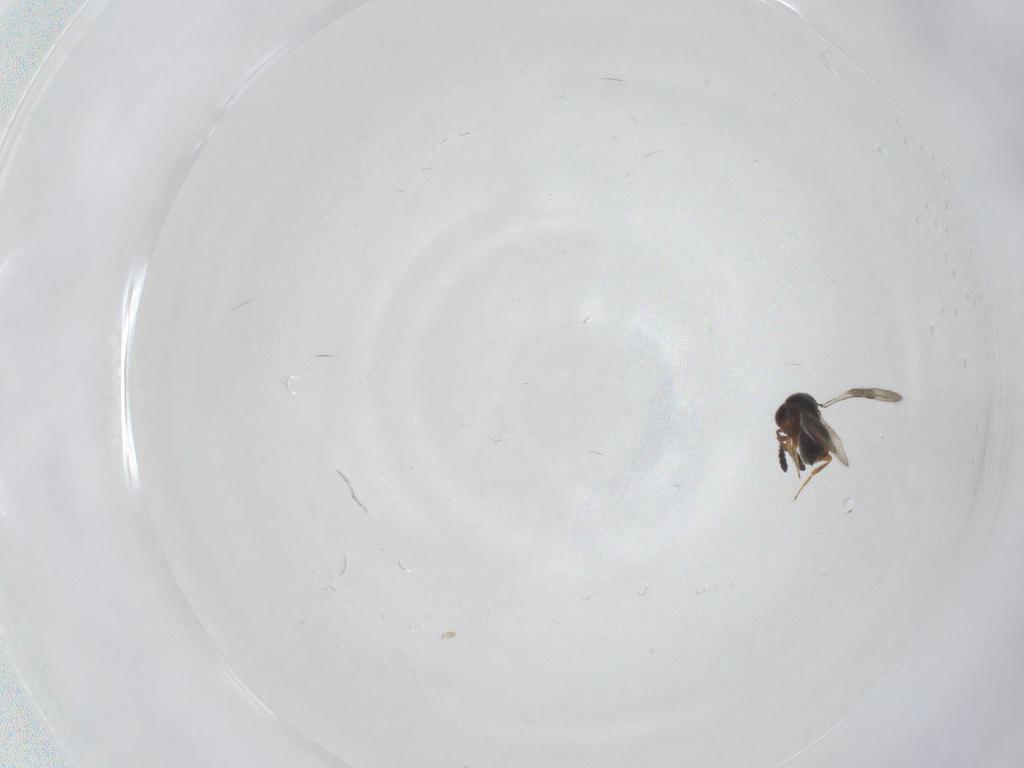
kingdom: Animalia
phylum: Arthropoda
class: Insecta
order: Hymenoptera
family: Ceraphronidae
